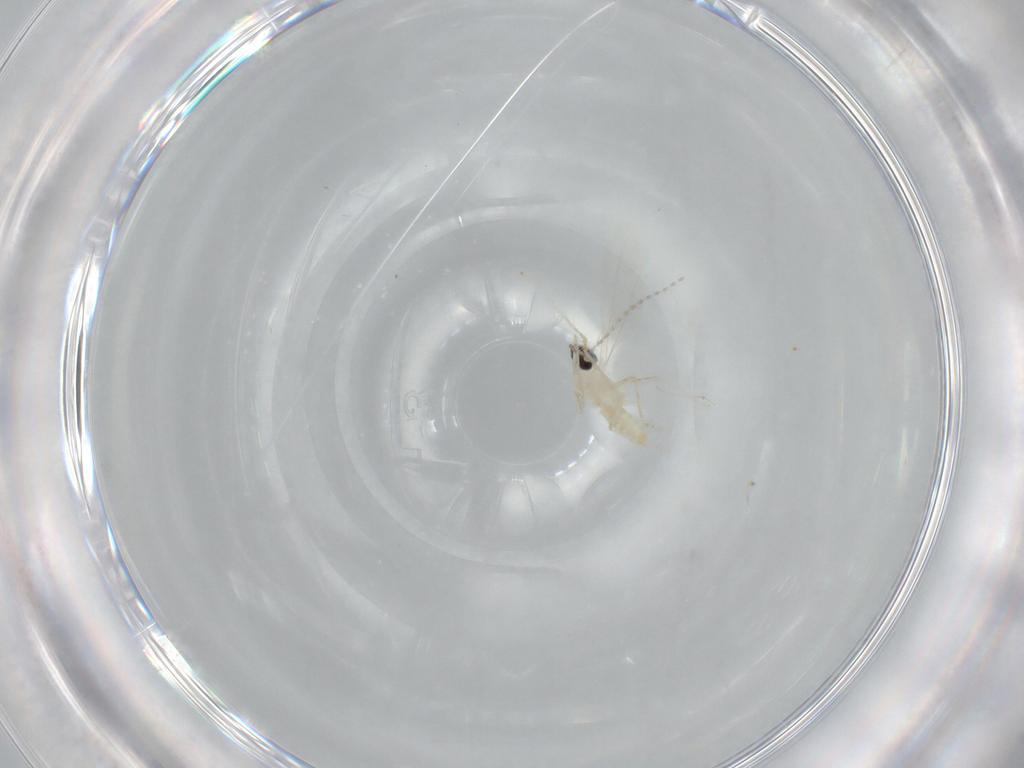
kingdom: Animalia
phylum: Arthropoda
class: Insecta
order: Diptera
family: Cecidomyiidae
